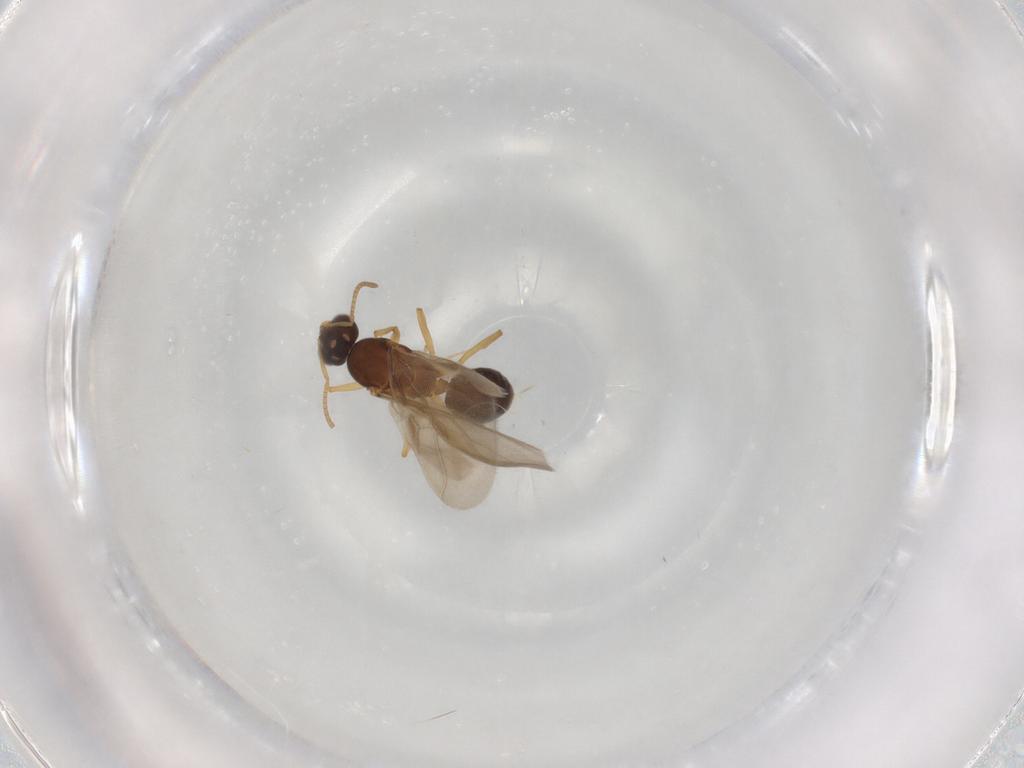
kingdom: Animalia
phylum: Arthropoda
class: Insecta
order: Hymenoptera
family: Formicidae
